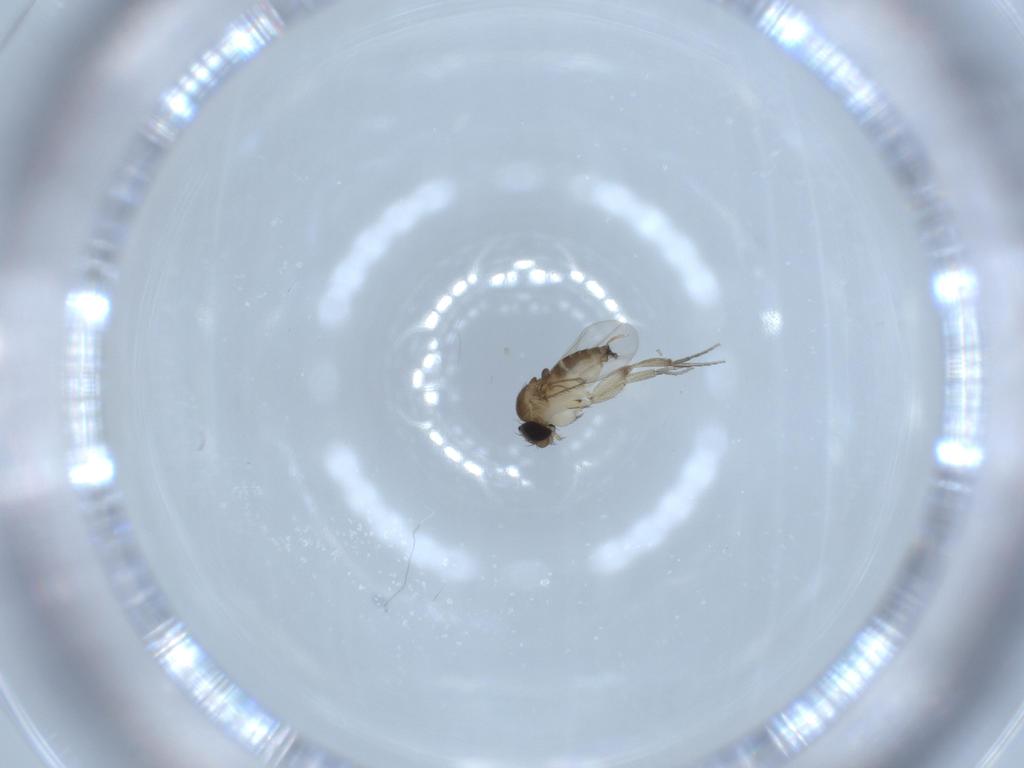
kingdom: Animalia
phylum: Arthropoda
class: Insecta
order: Diptera
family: Phoridae
